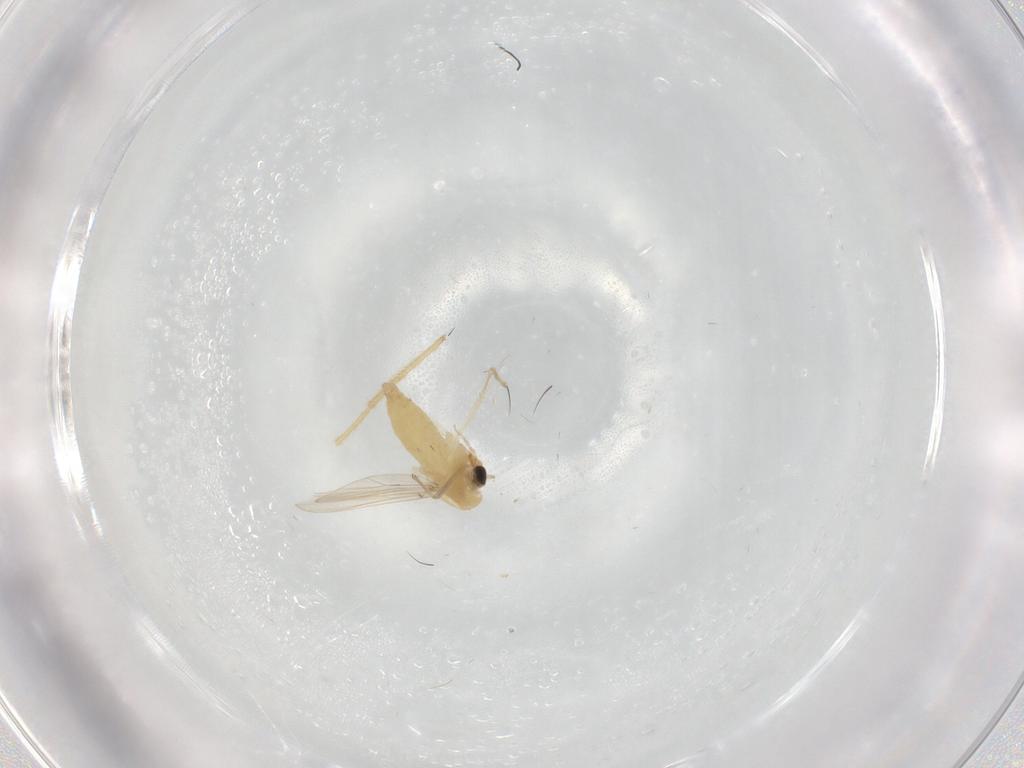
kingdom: Animalia
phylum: Arthropoda
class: Insecta
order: Diptera
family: Chironomidae
